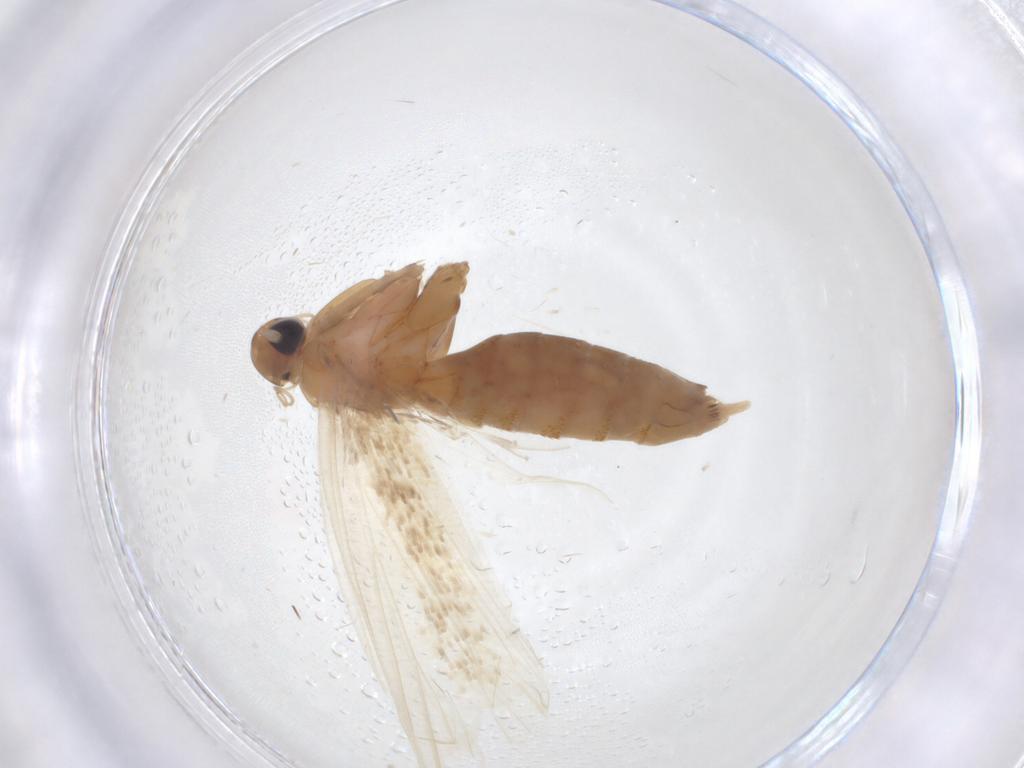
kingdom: Animalia
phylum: Arthropoda
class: Insecta
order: Lepidoptera
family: Lecithoceridae
